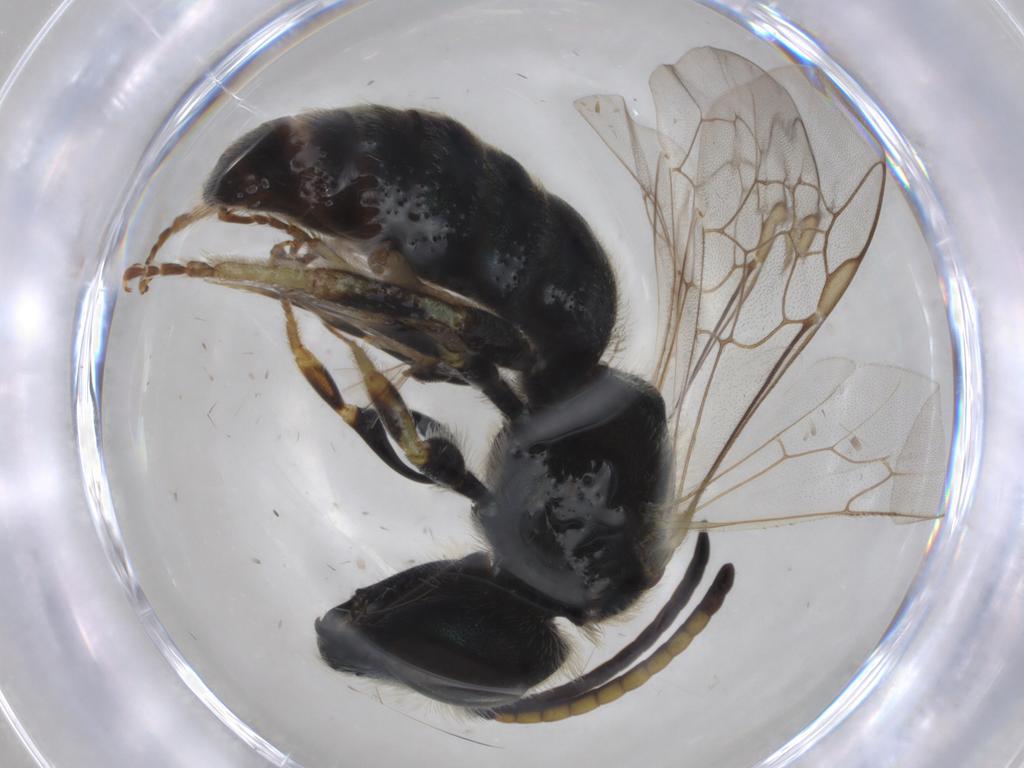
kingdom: Animalia
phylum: Arthropoda
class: Insecta
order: Hymenoptera
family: Halictidae
